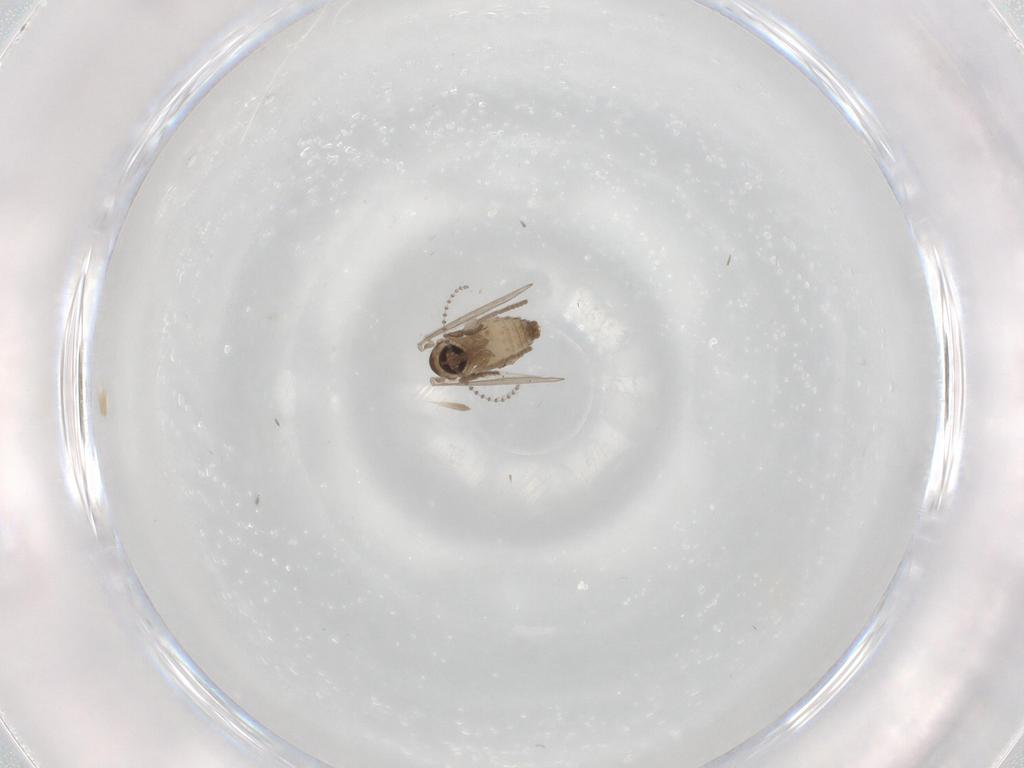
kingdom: Animalia
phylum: Arthropoda
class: Insecta
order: Diptera
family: Psychodidae
